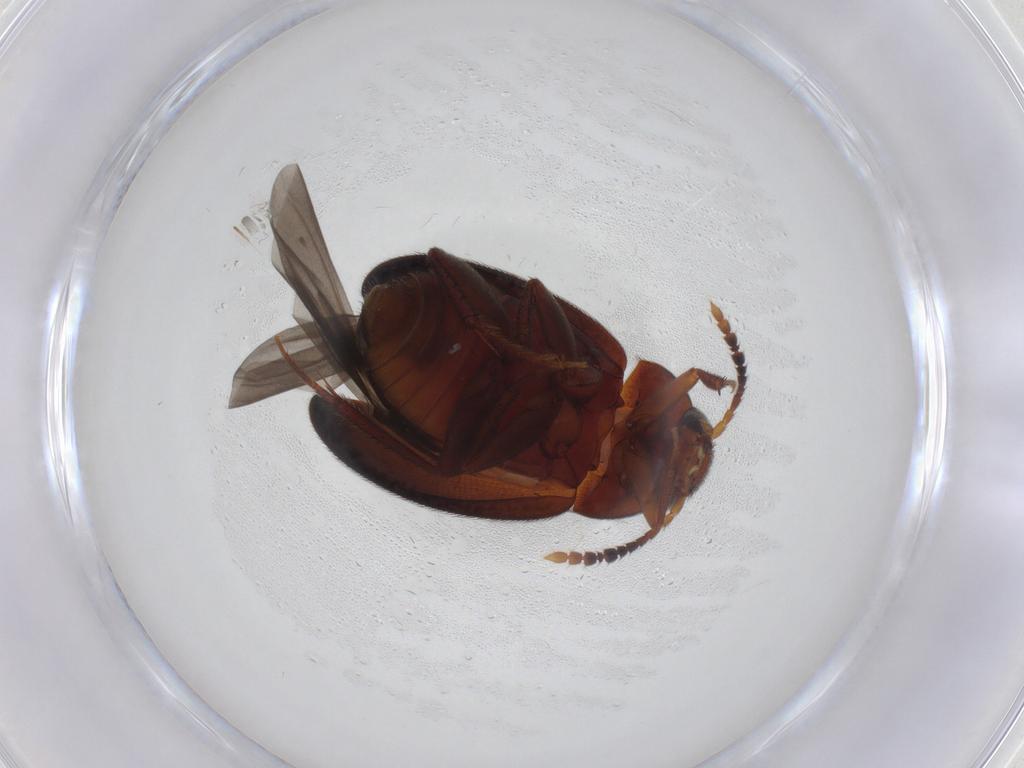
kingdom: Animalia
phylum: Arthropoda
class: Insecta
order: Coleoptera
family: Leiodidae
